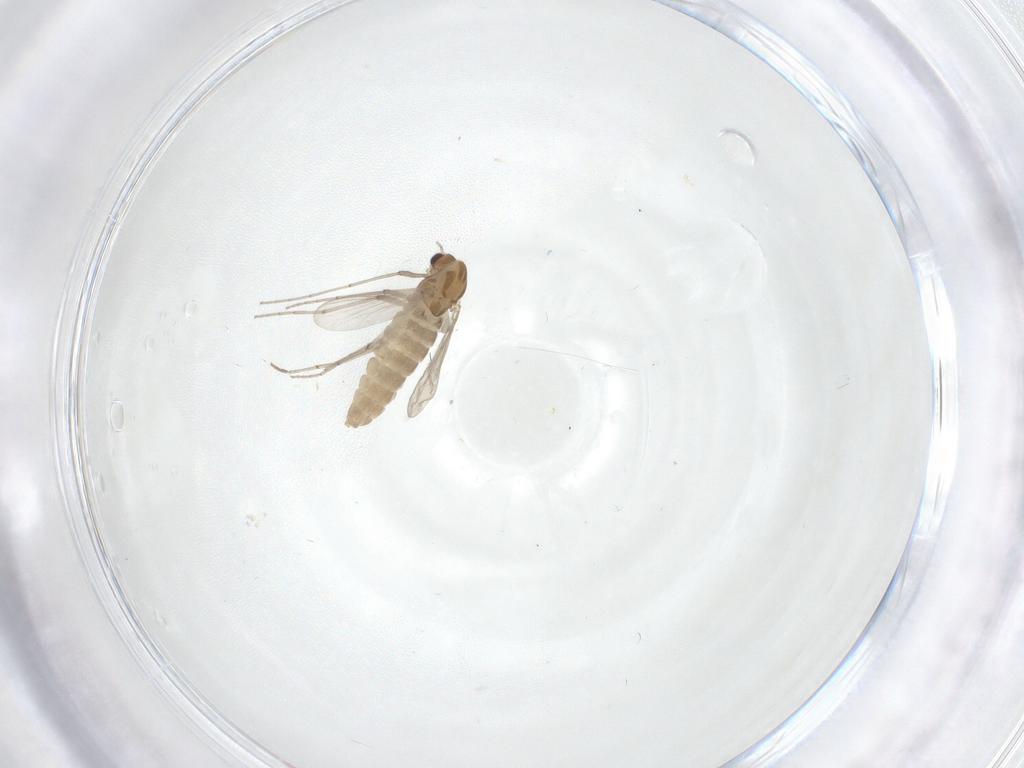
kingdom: Animalia
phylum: Arthropoda
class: Insecta
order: Diptera
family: Chironomidae
